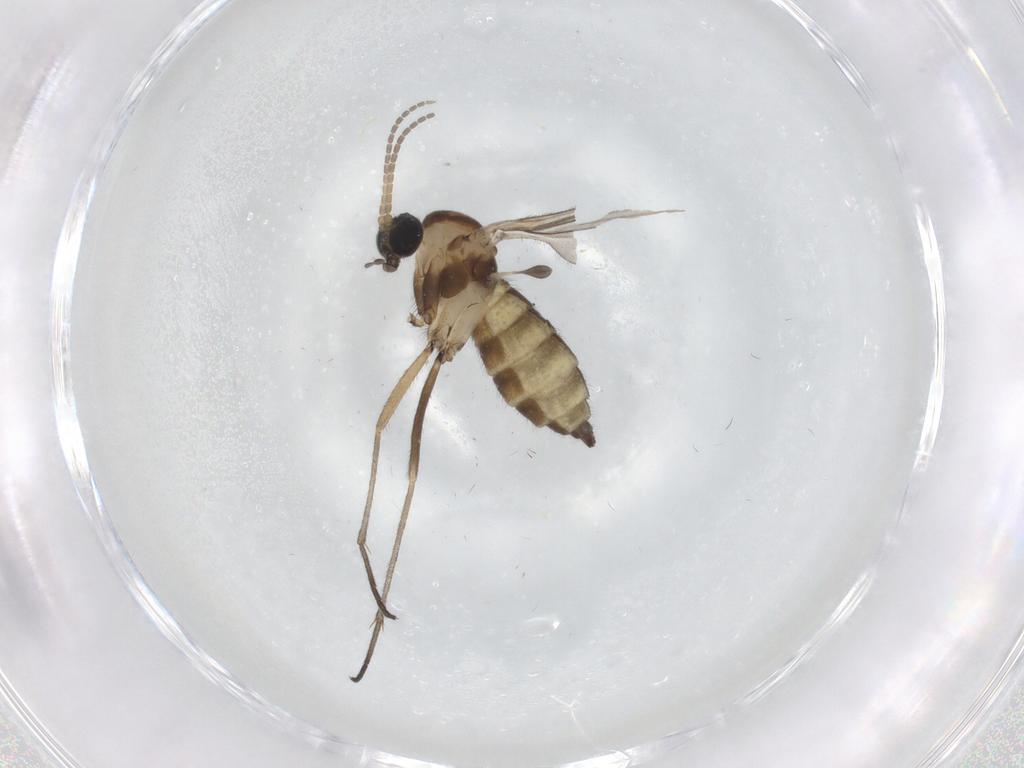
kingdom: Animalia
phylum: Arthropoda
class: Insecta
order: Diptera
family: Sciaridae
